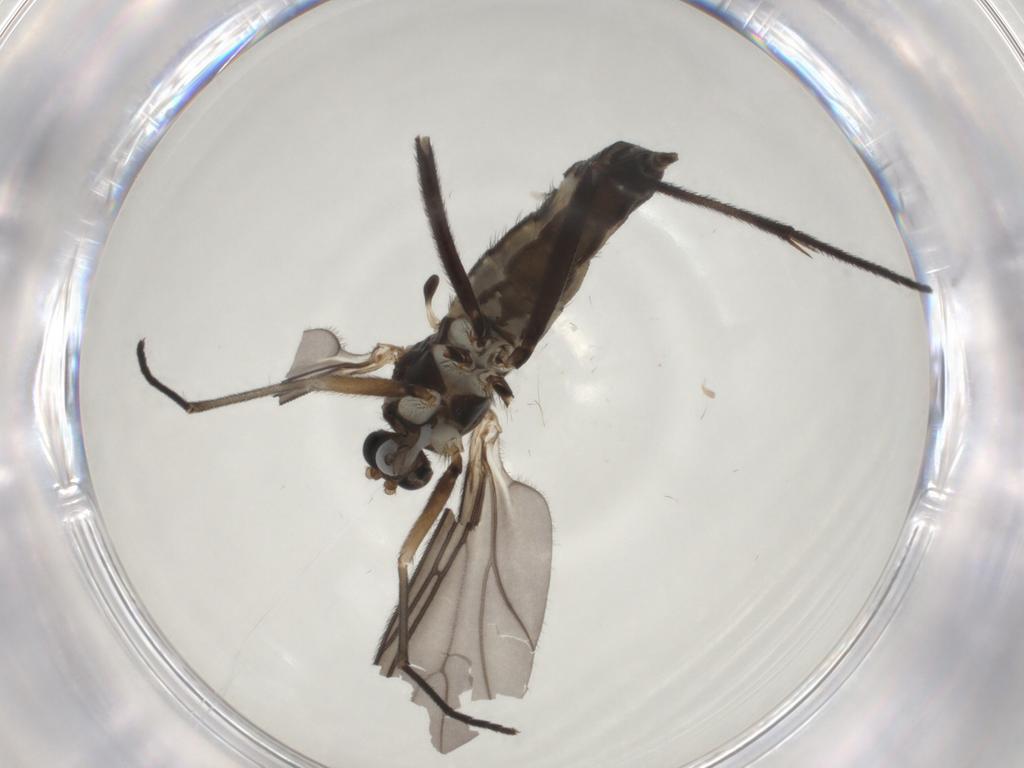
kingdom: Animalia
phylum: Arthropoda
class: Insecta
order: Diptera
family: Sciaridae
